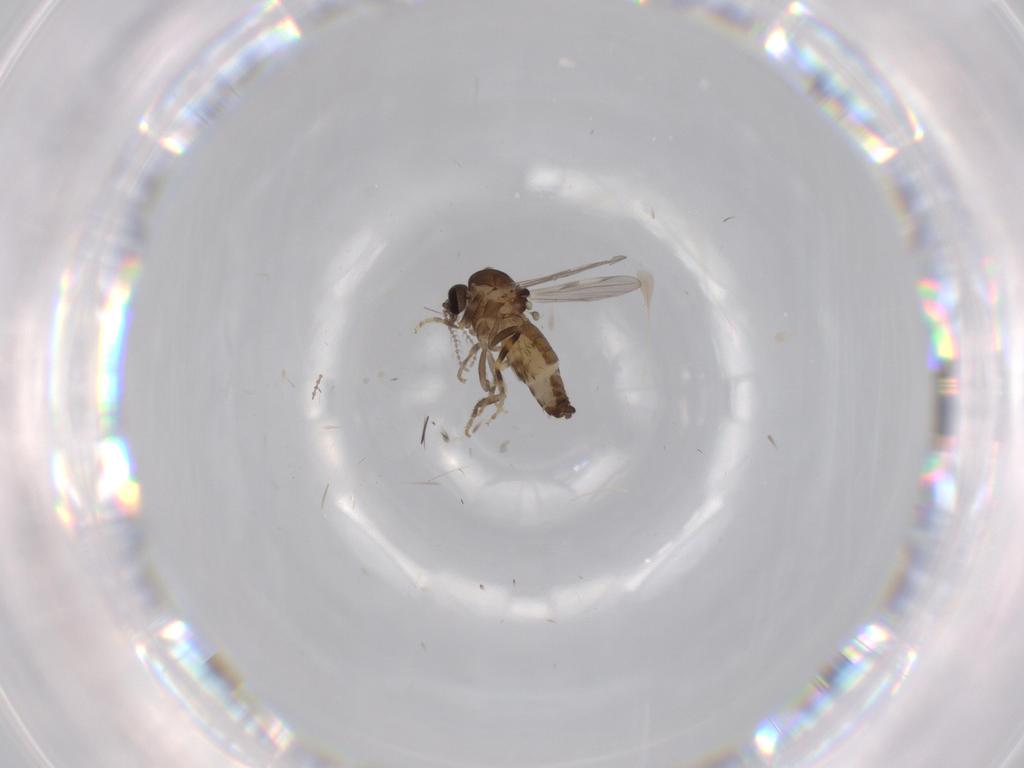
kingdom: Animalia
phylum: Arthropoda
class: Insecta
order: Diptera
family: Ceratopogonidae
